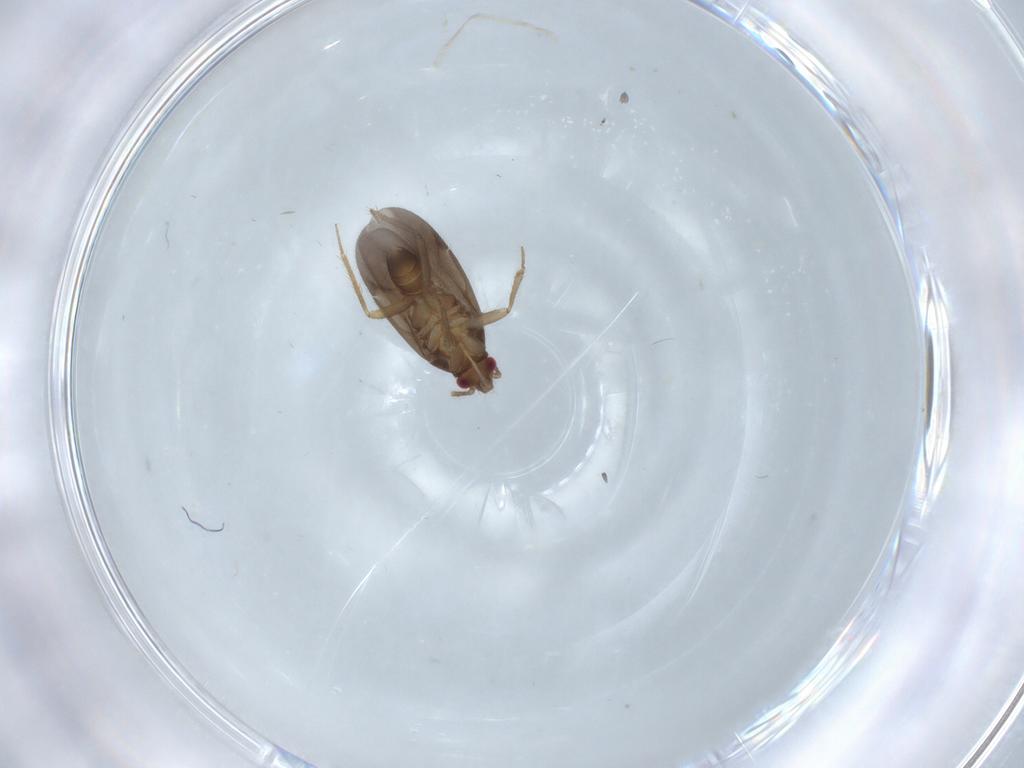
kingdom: Animalia
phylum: Arthropoda
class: Insecta
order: Hemiptera
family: Ceratocombidae
